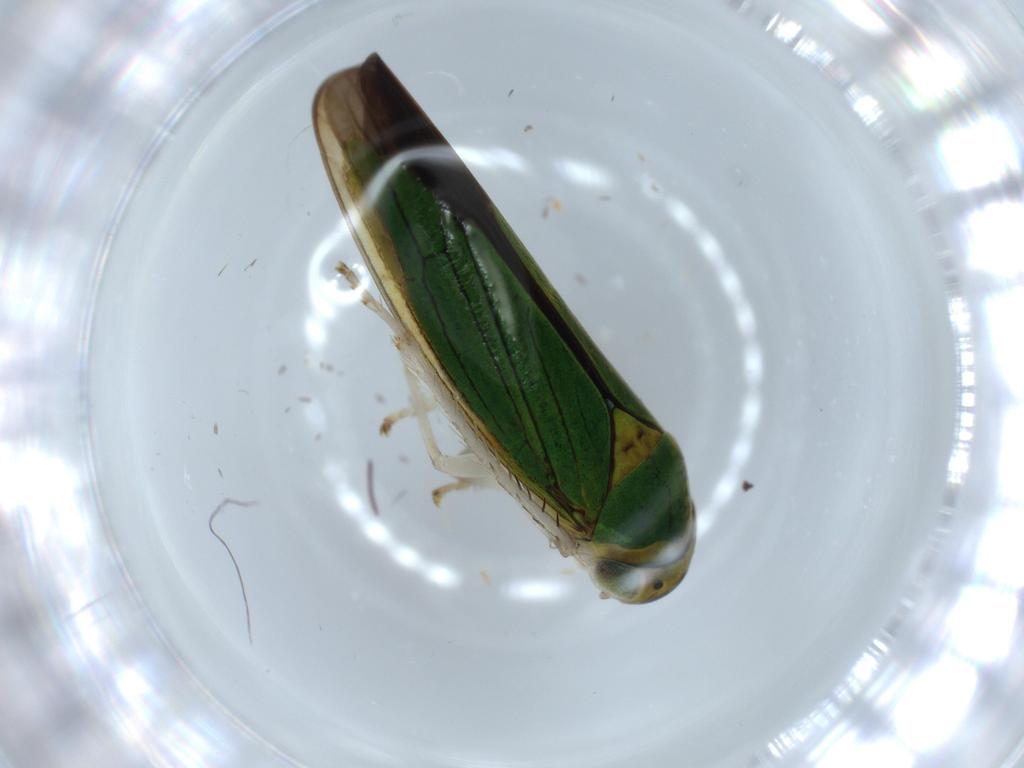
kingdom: Animalia
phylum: Arthropoda
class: Insecta
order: Hemiptera
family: Cicadellidae
